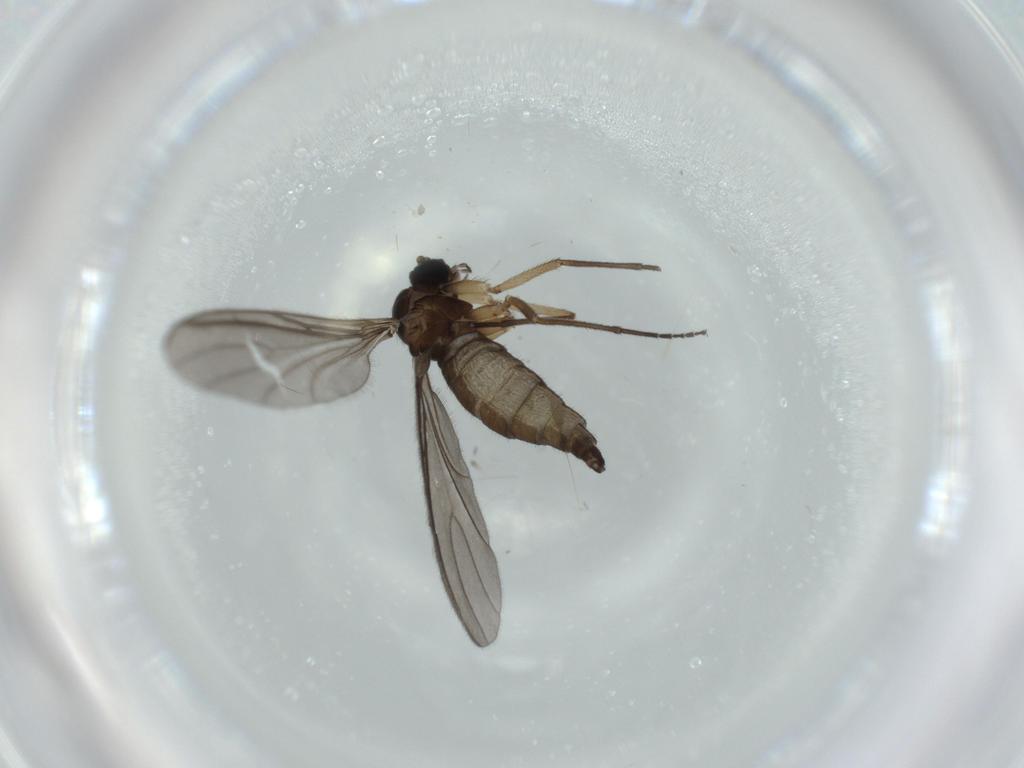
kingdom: Animalia
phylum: Arthropoda
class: Insecta
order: Diptera
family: Sciaridae
